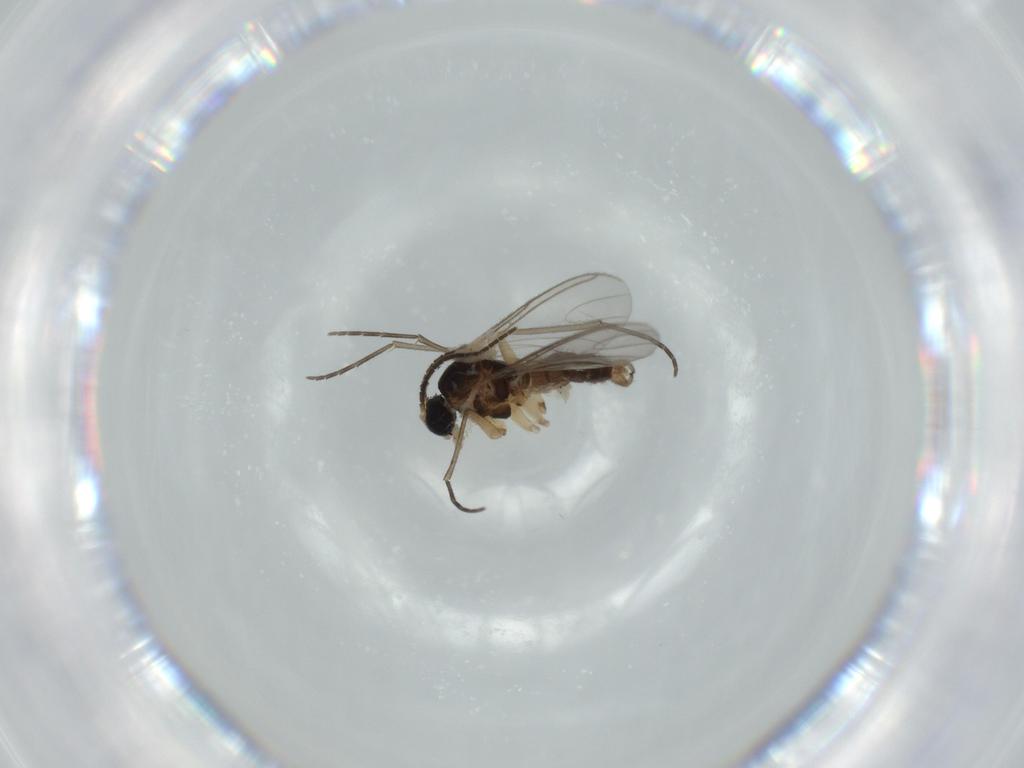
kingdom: Animalia
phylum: Arthropoda
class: Insecta
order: Diptera
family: Sciaridae
